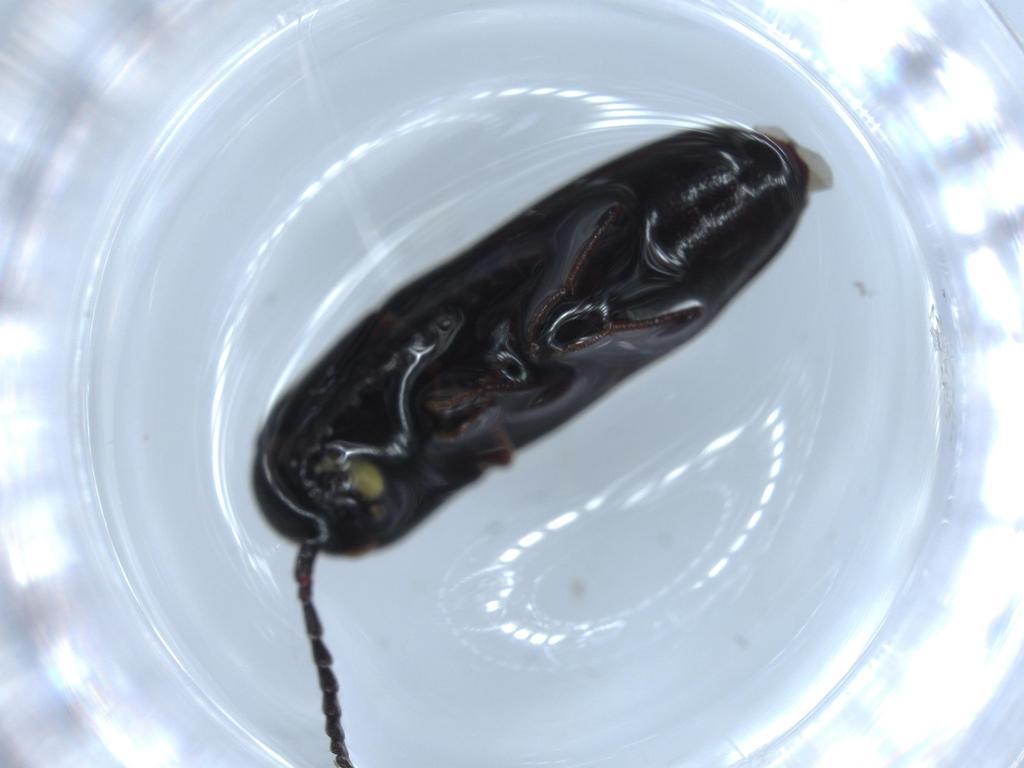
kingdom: Animalia
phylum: Arthropoda
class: Insecta
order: Coleoptera
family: Chrysomelidae
